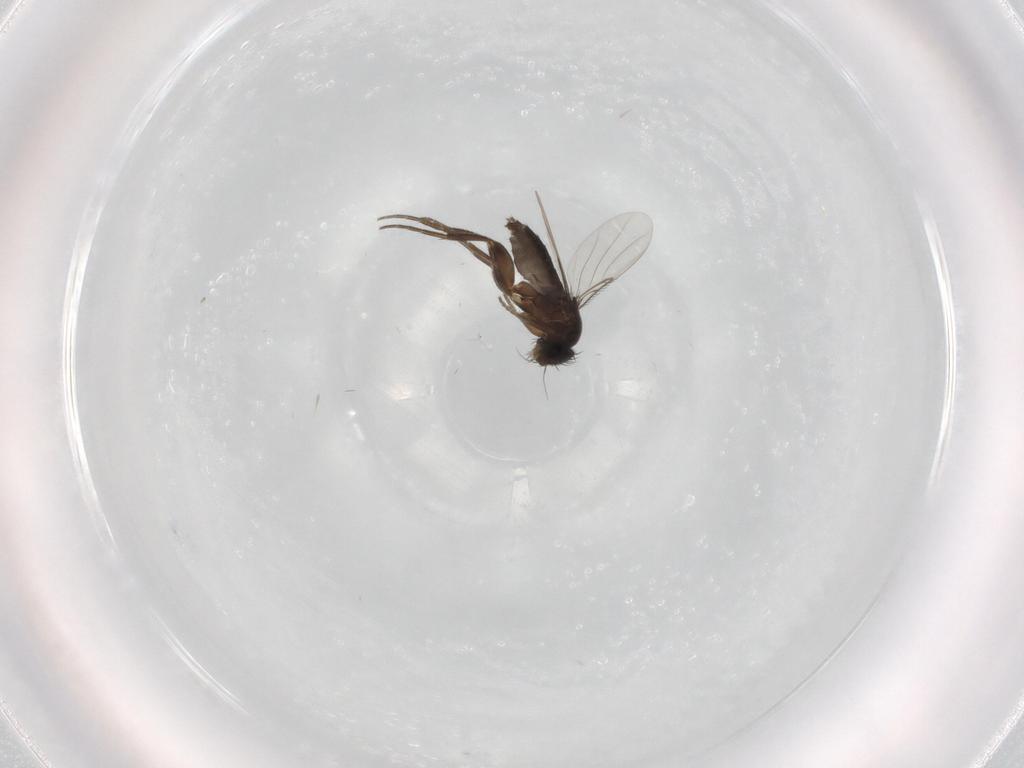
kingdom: Animalia
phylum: Arthropoda
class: Insecta
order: Diptera
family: Phoridae
